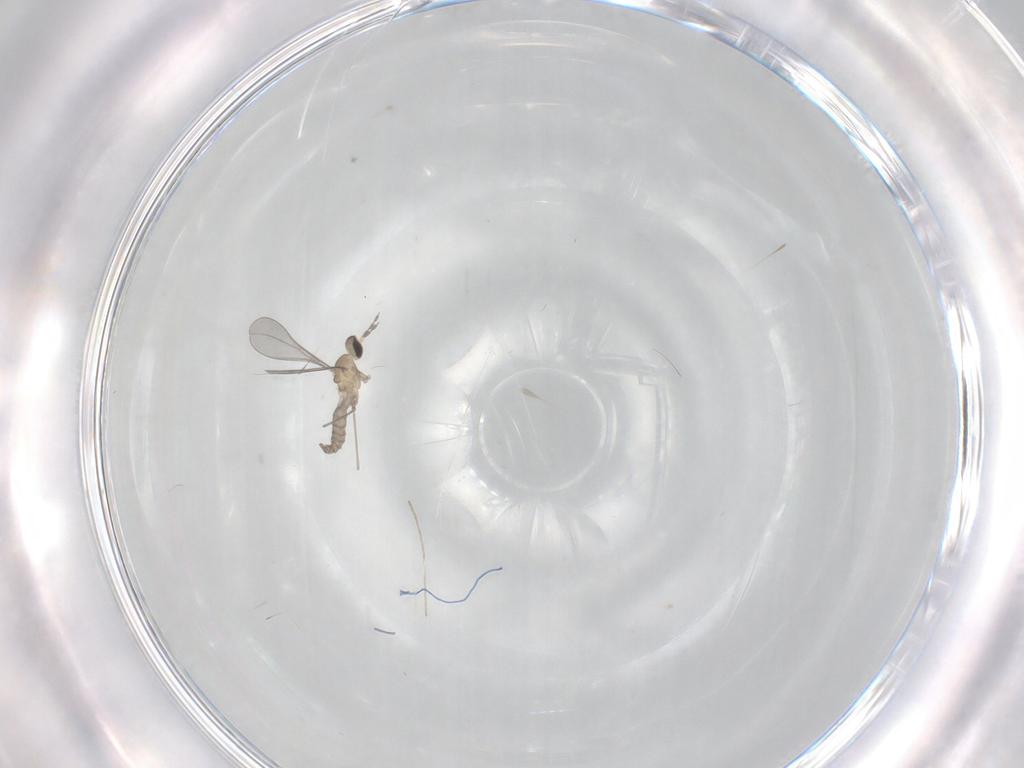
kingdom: Animalia
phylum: Arthropoda
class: Insecta
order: Diptera
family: Cecidomyiidae
